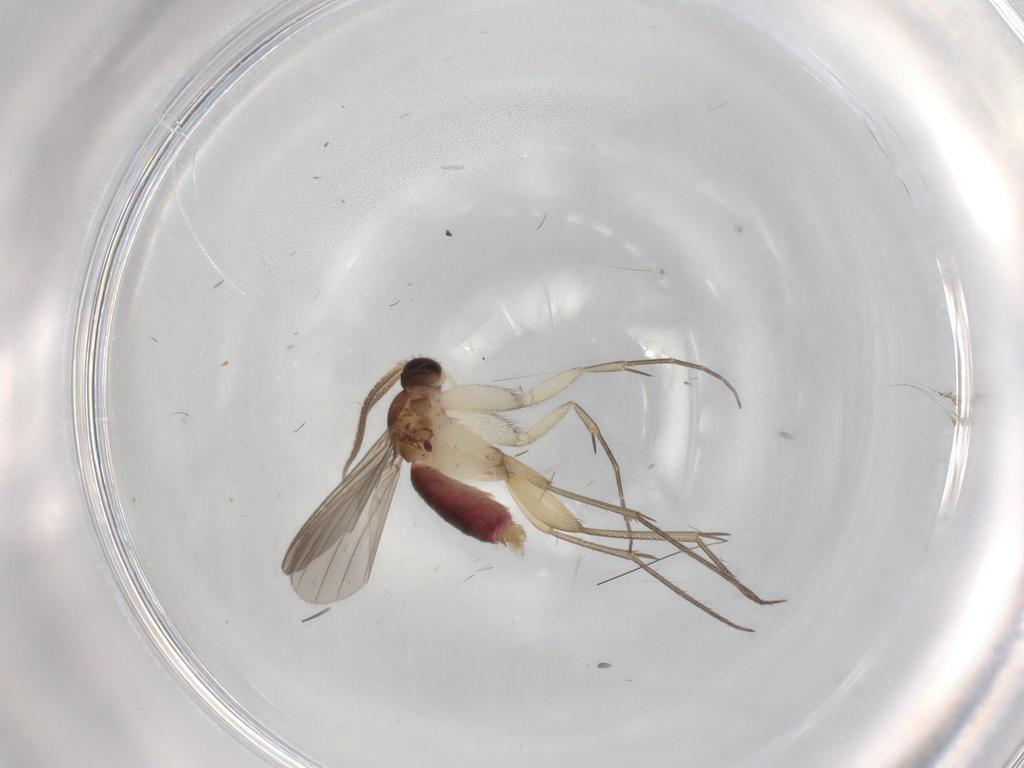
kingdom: Animalia
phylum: Arthropoda
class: Insecta
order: Diptera
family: Mycetophilidae
